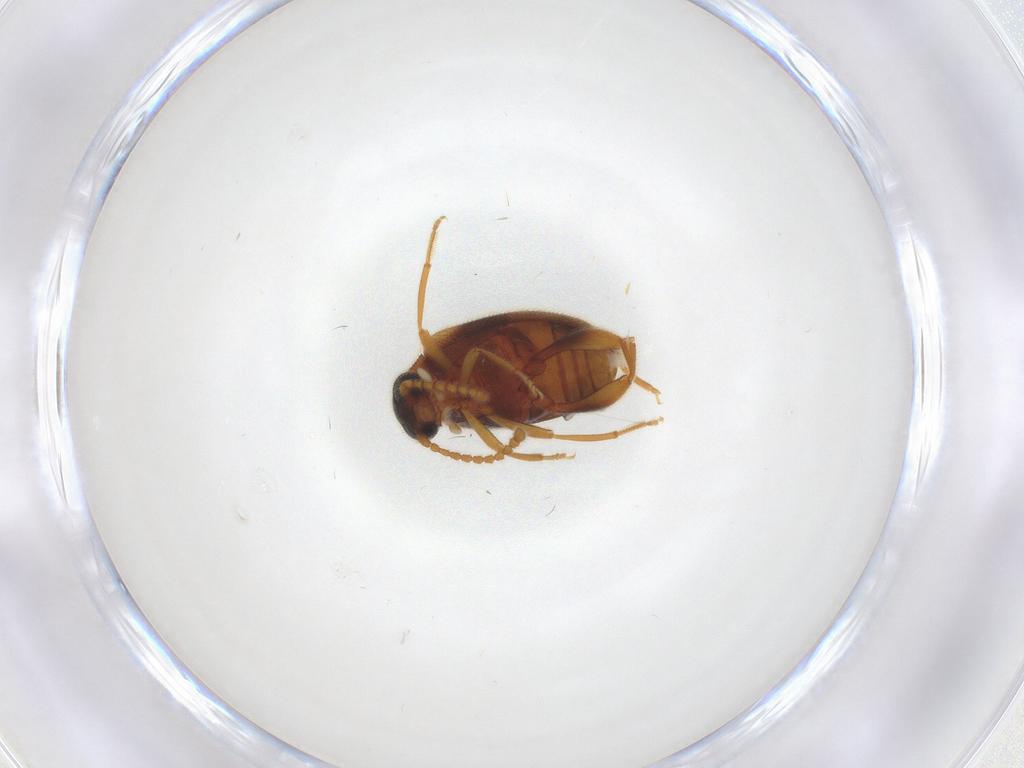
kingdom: Animalia
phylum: Arthropoda
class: Insecta
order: Coleoptera
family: Aderidae
